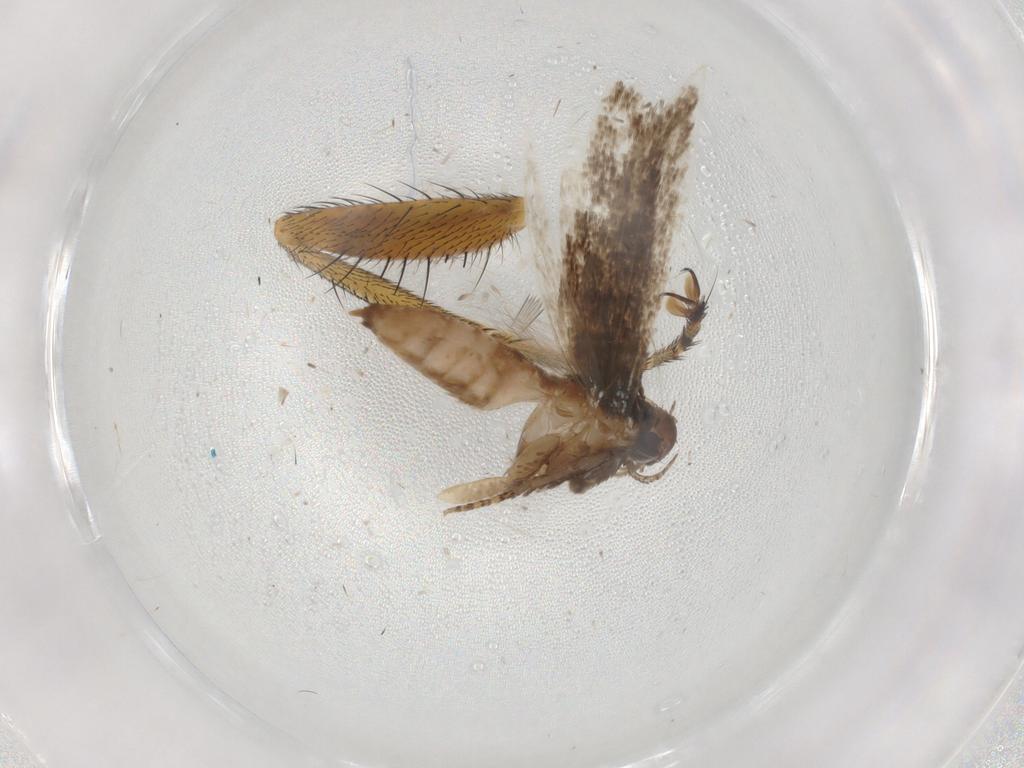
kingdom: Animalia
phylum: Arthropoda
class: Insecta
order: Lepidoptera
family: Cosmopterigidae
